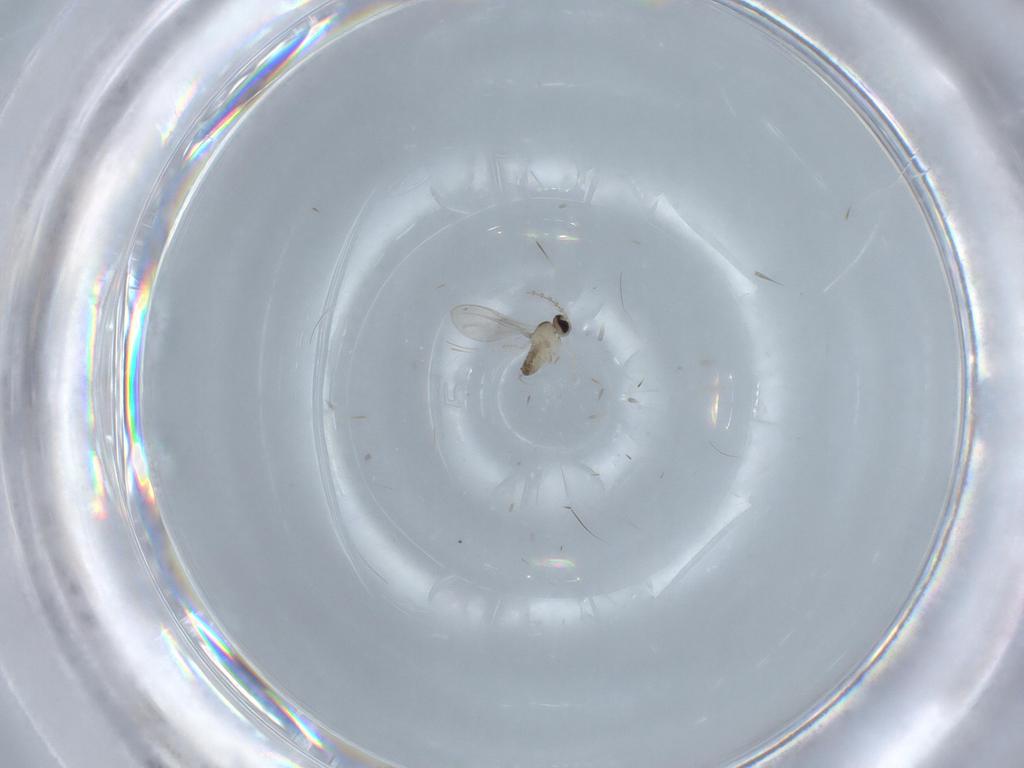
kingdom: Animalia
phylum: Arthropoda
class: Insecta
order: Diptera
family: Cecidomyiidae
